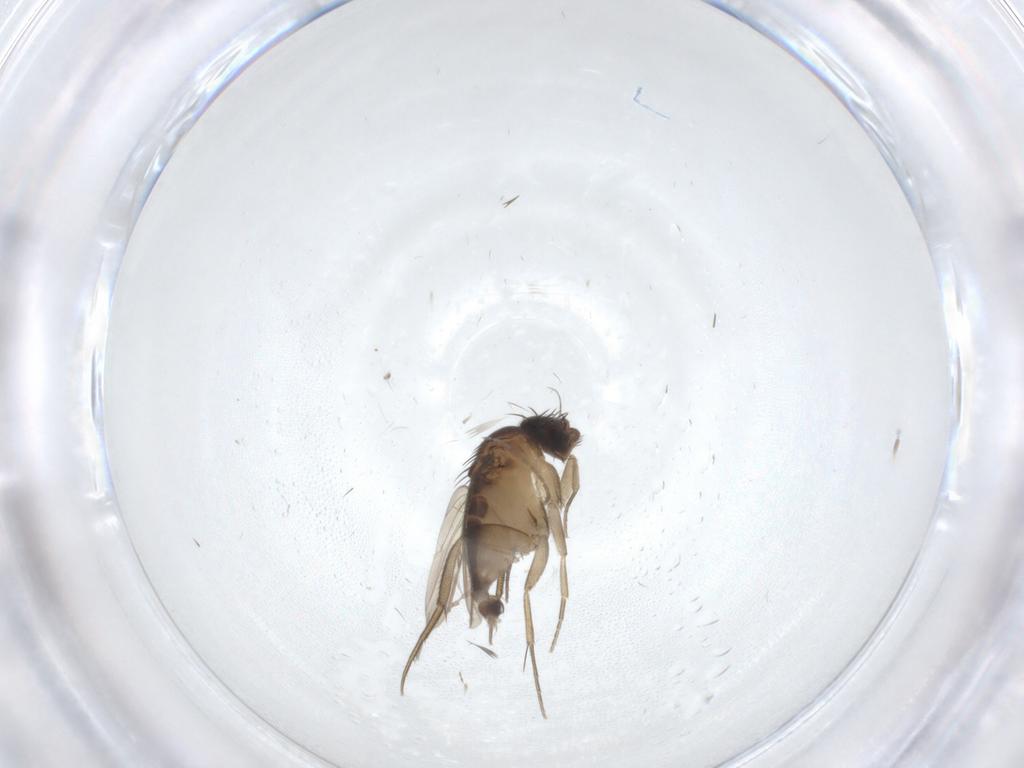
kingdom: Animalia
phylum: Arthropoda
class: Insecta
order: Diptera
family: Phoridae
